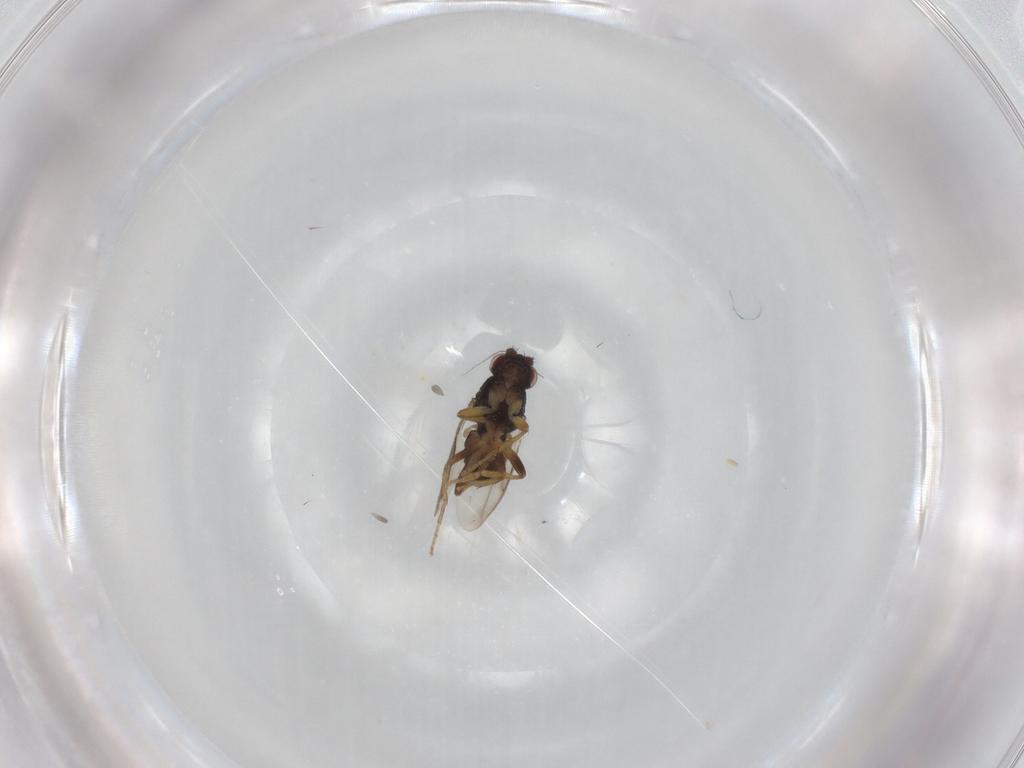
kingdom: Animalia
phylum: Arthropoda
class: Insecta
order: Diptera
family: Sphaeroceridae
